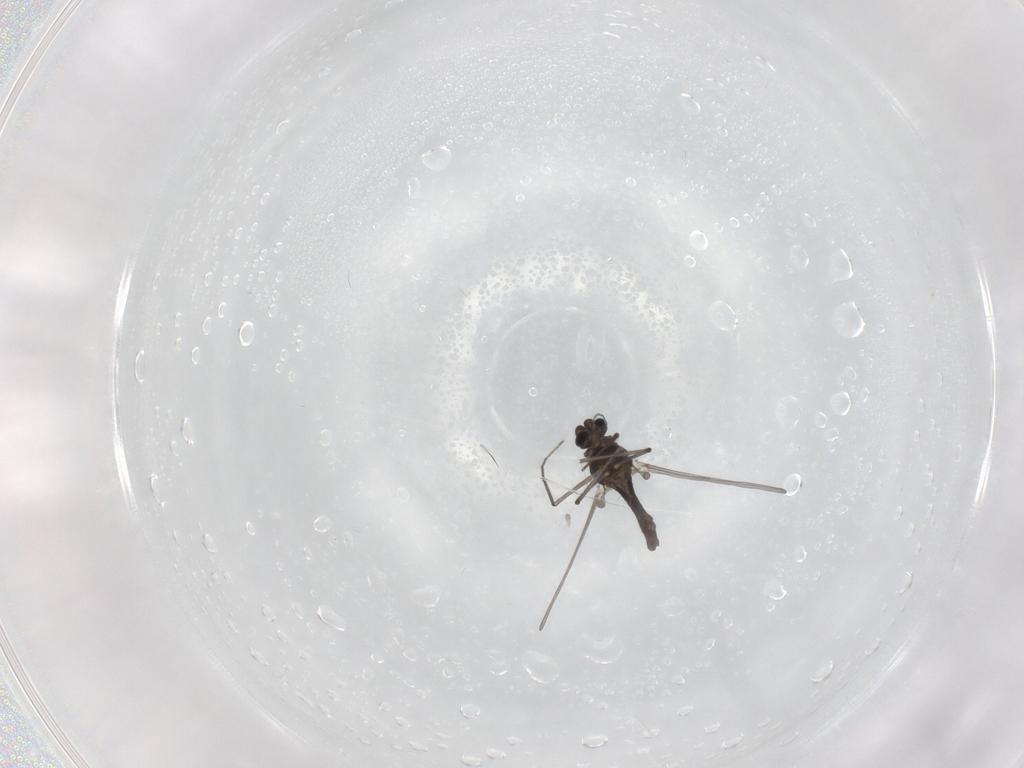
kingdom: Animalia
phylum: Arthropoda
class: Insecta
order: Diptera
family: Chironomidae
